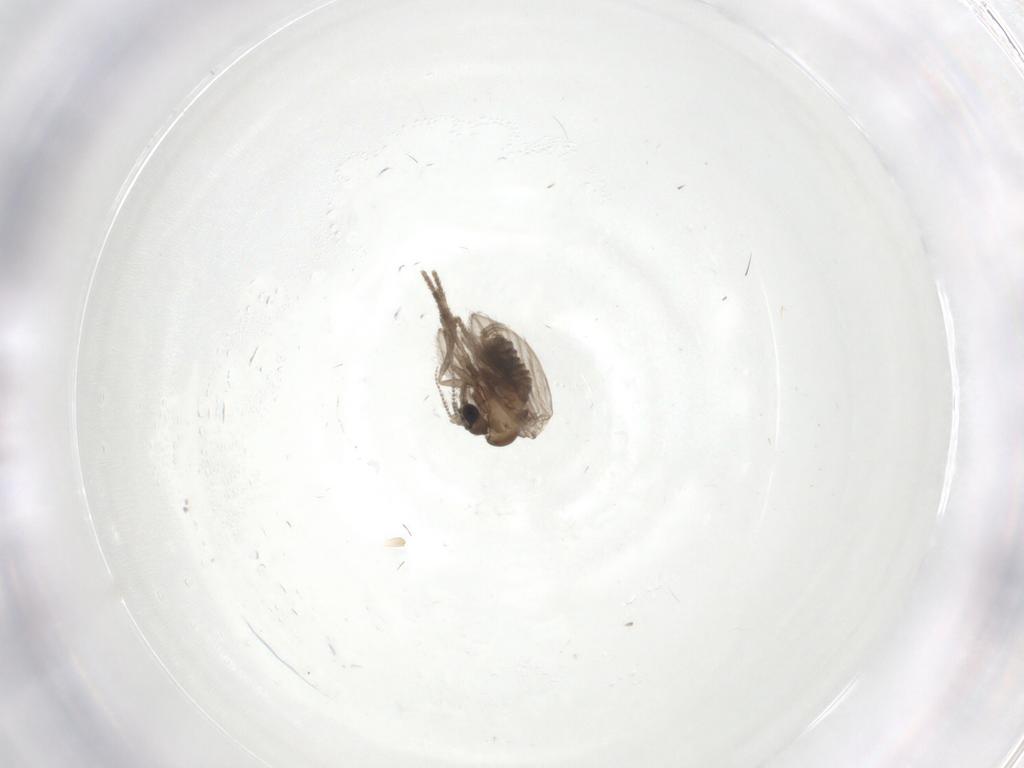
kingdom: Animalia
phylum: Arthropoda
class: Insecta
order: Diptera
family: Psychodidae
